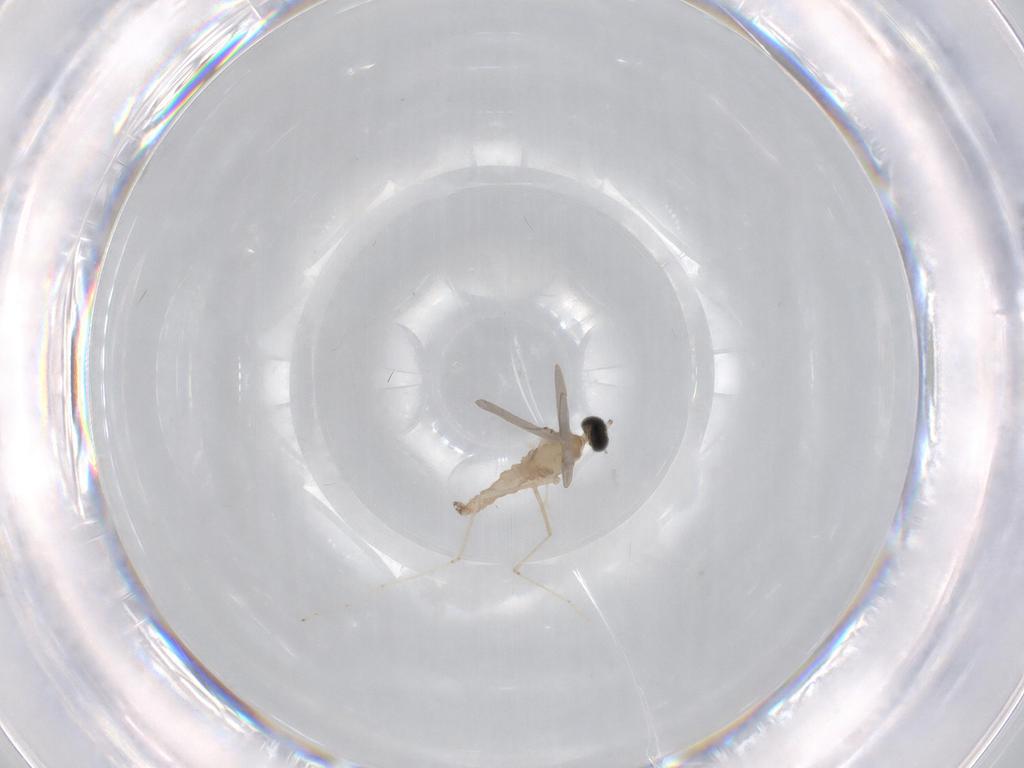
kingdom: Animalia
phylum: Arthropoda
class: Insecta
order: Diptera
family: Cecidomyiidae
